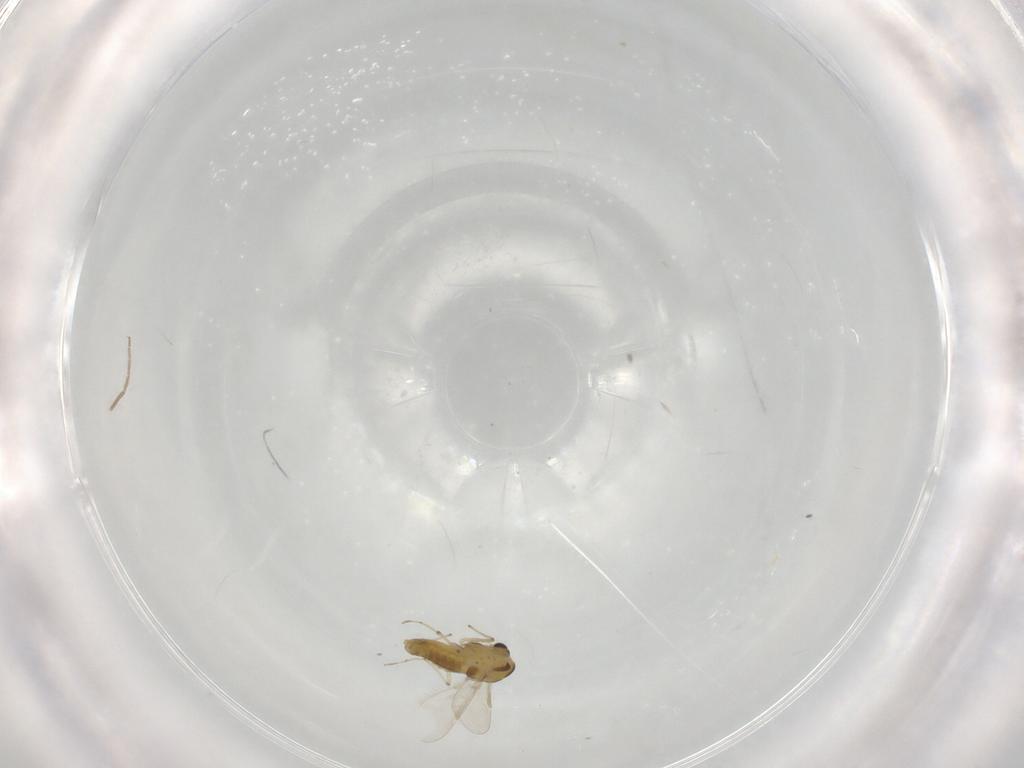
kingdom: Animalia
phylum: Arthropoda
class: Insecta
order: Diptera
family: Chironomidae
